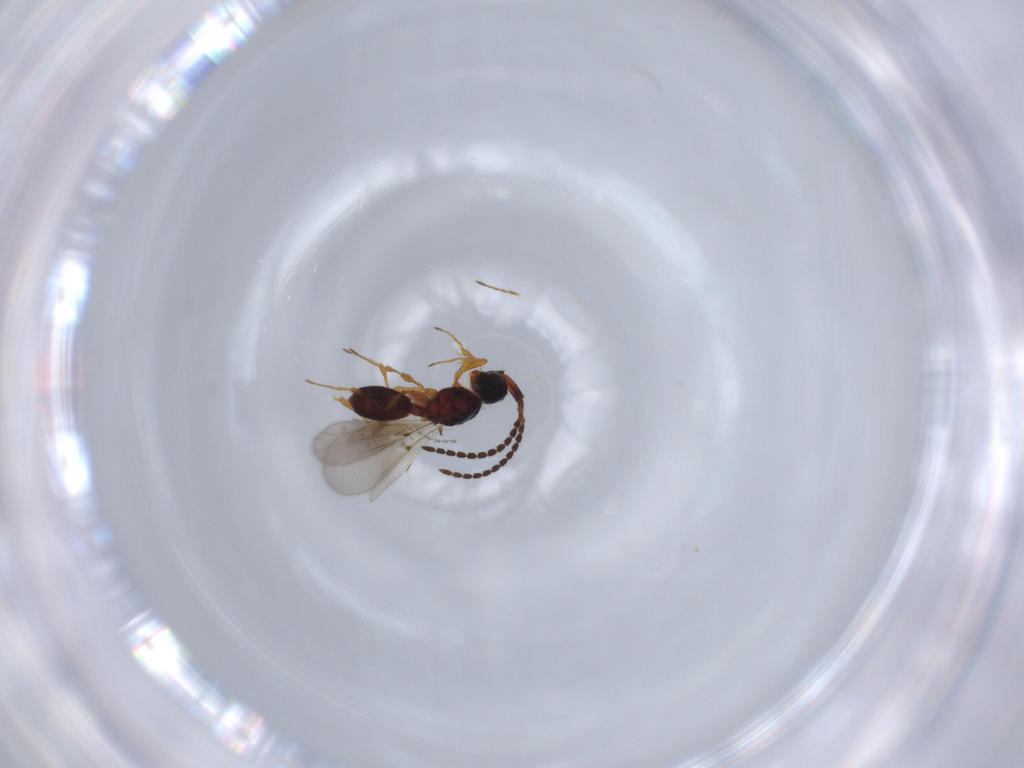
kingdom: Animalia
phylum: Arthropoda
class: Insecta
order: Hymenoptera
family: Diapriidae
